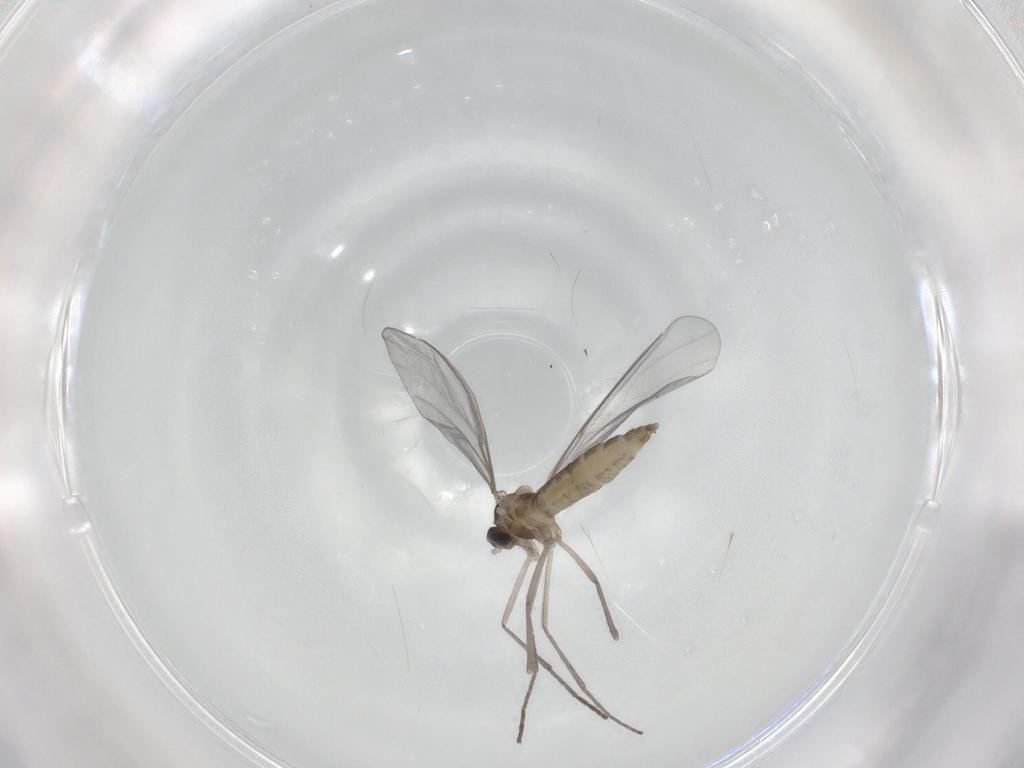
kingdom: Animalia
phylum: Arthropoda
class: Insecta
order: Diptera
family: Cecidomyiidae
